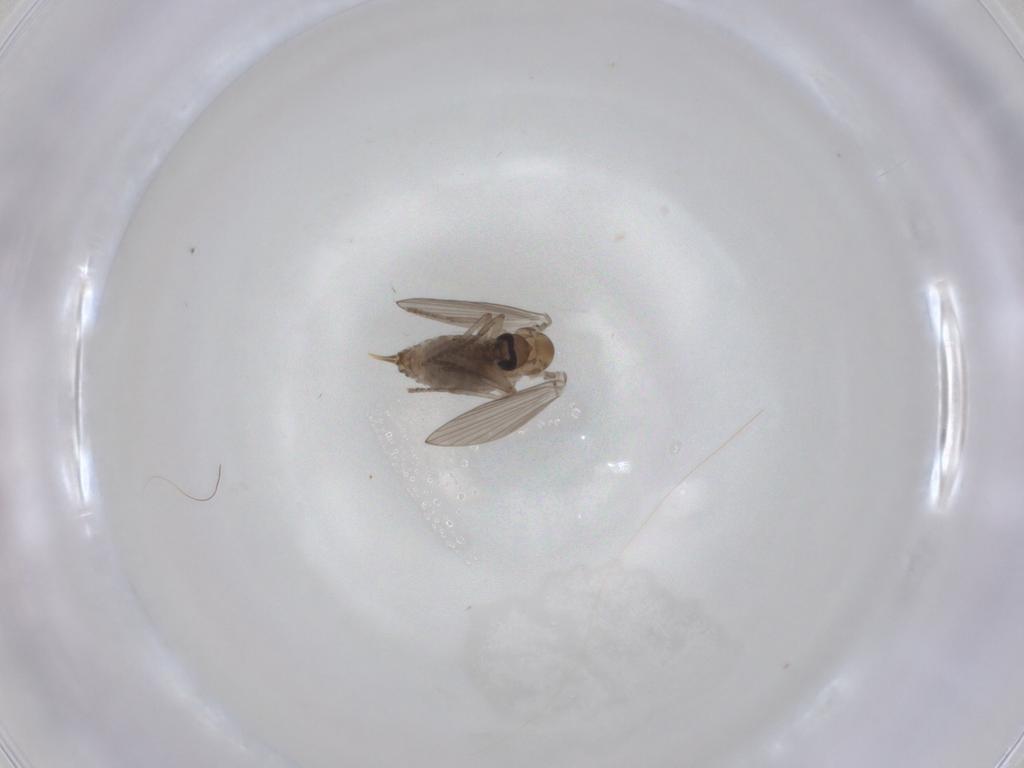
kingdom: Animalia
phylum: Arthropoda
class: Insecta
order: Diptera
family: Psychodidae
